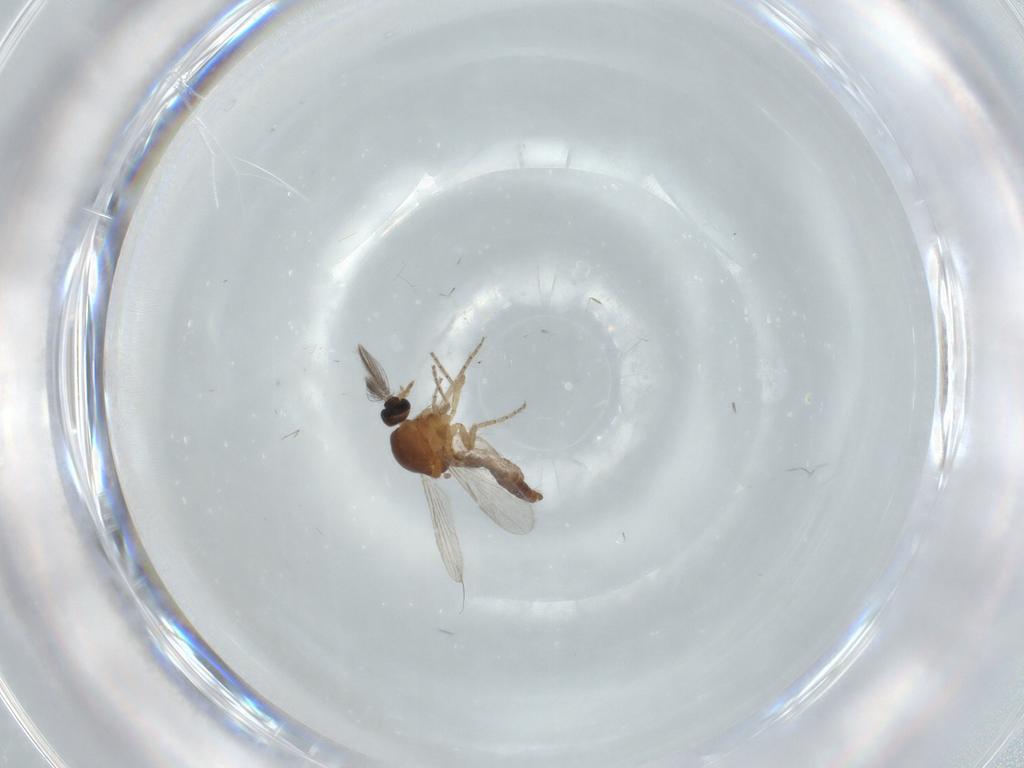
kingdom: Animalia
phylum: Arthropoda
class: Insecta
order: Diptera
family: Ceratopogonidae
